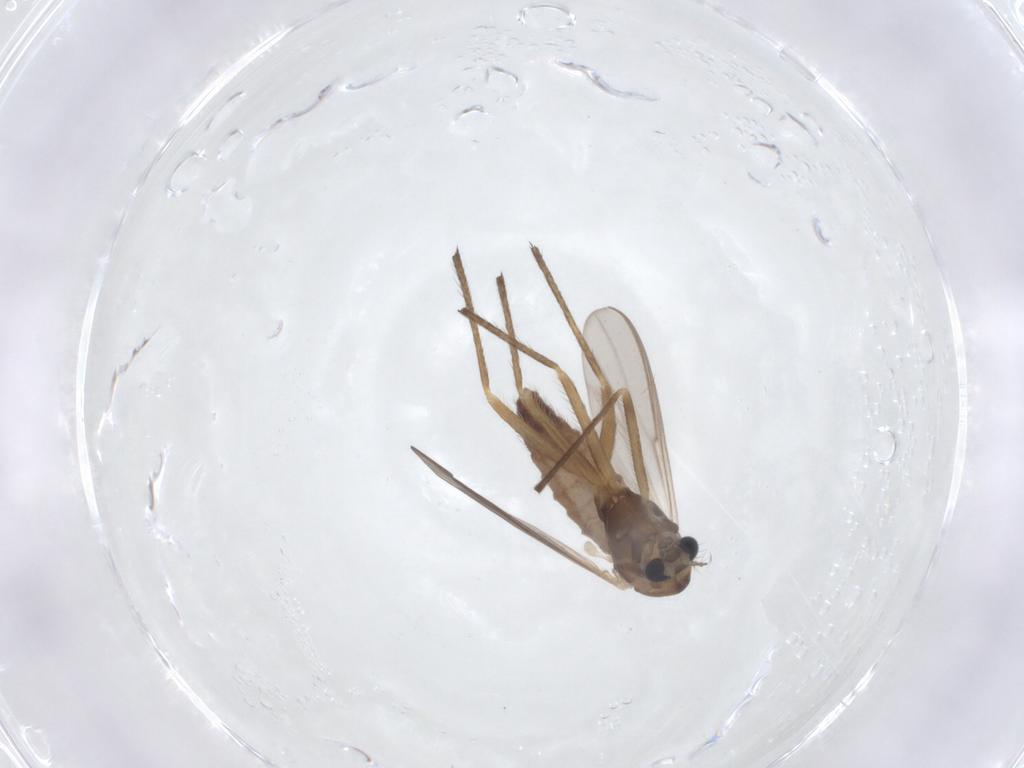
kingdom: Animalia
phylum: Arthropoda
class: Insecta
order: Diptera
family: Chironomidae
